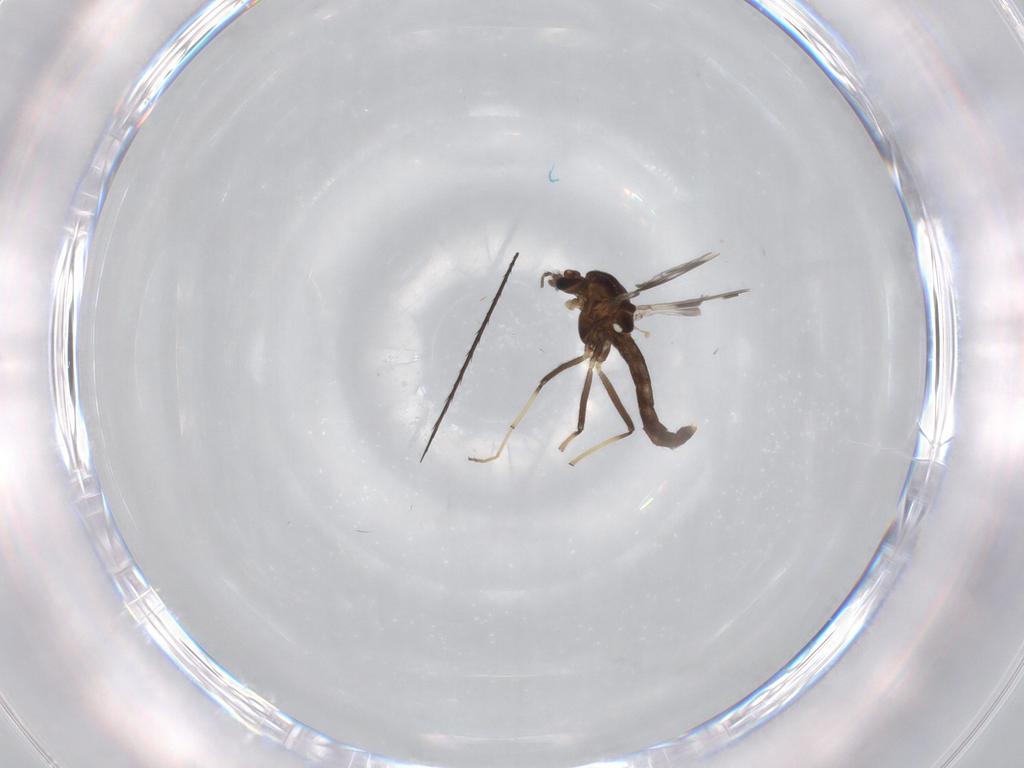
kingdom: Animalia
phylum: Arthropoda
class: Insecta
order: Diptera
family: Chironomidae
